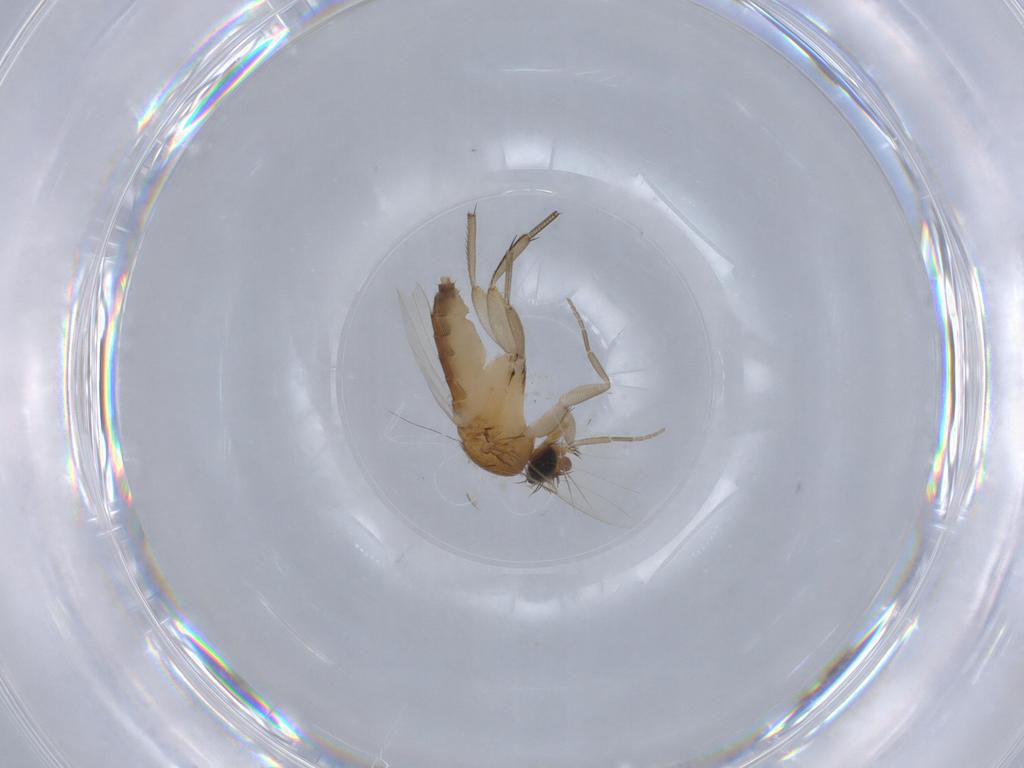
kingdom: Animalia
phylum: Arthropoda
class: Insecta
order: Diptera
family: Phoridae
